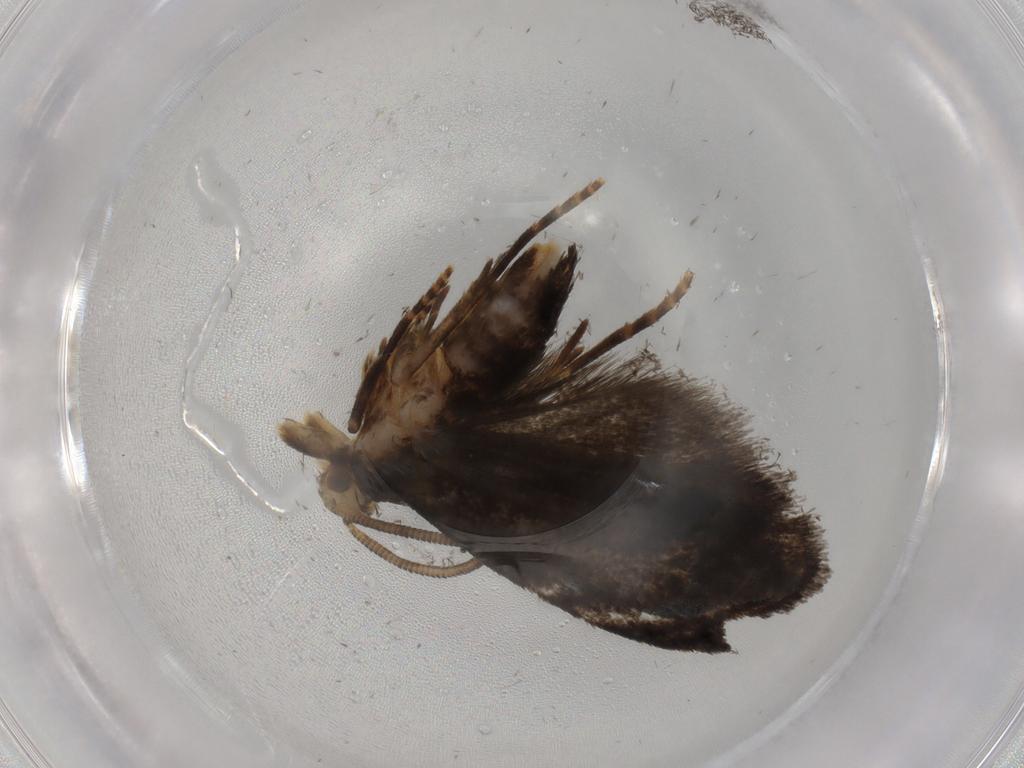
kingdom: Animalia
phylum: Arthropoda
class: Insecta
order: Lepidoptera
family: Dryadaulidae
